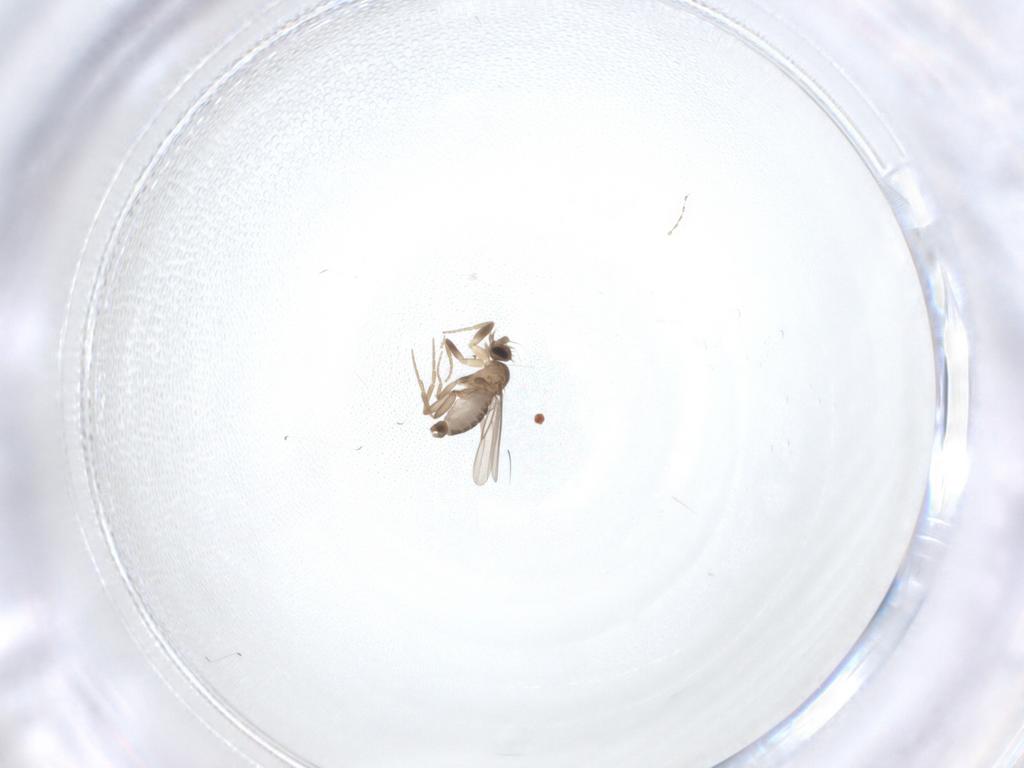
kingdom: Animalia
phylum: Arthropoda
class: Insecta
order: Diptera
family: Cecidomyiidae
